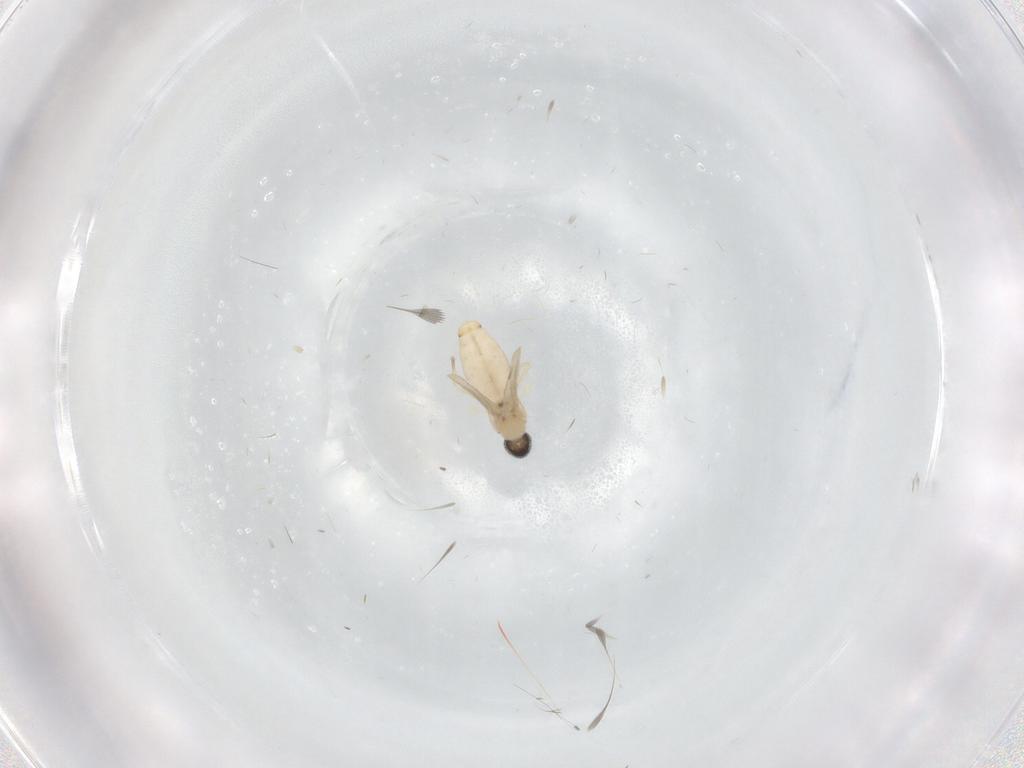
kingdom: Animalia
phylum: Arthropoda
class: Insecta
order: Diptera
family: Cecidomyiidae
